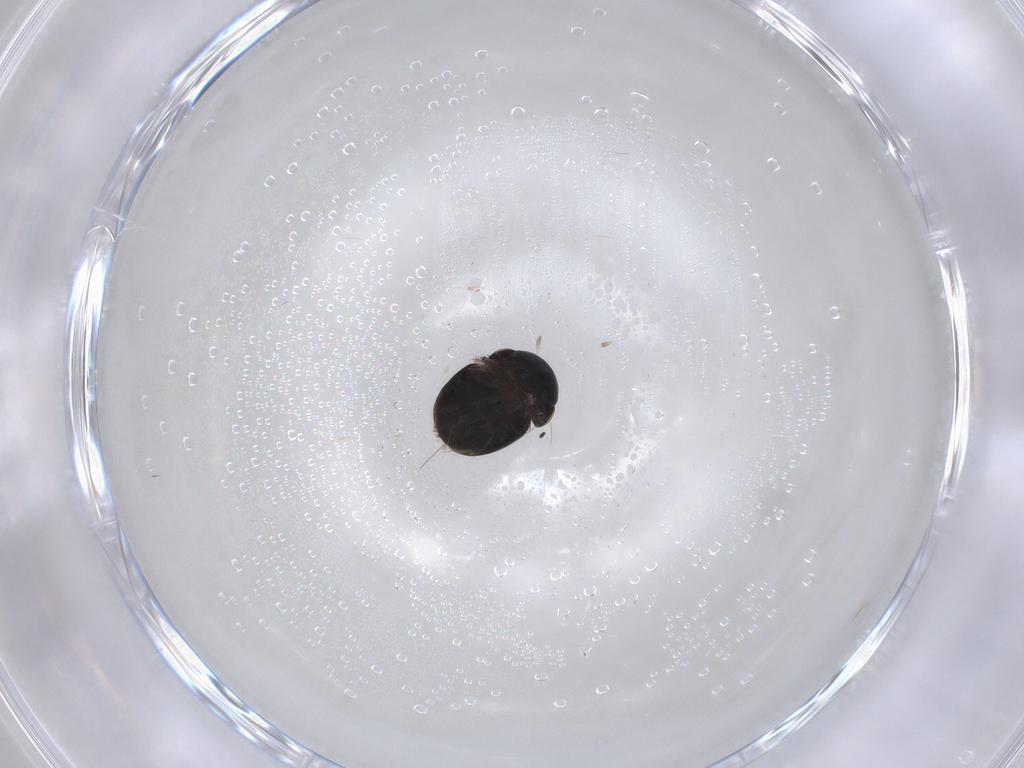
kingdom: Animalia
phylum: Arthropoda
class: Insecta
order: Coleoptera
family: Cybocephalidae
